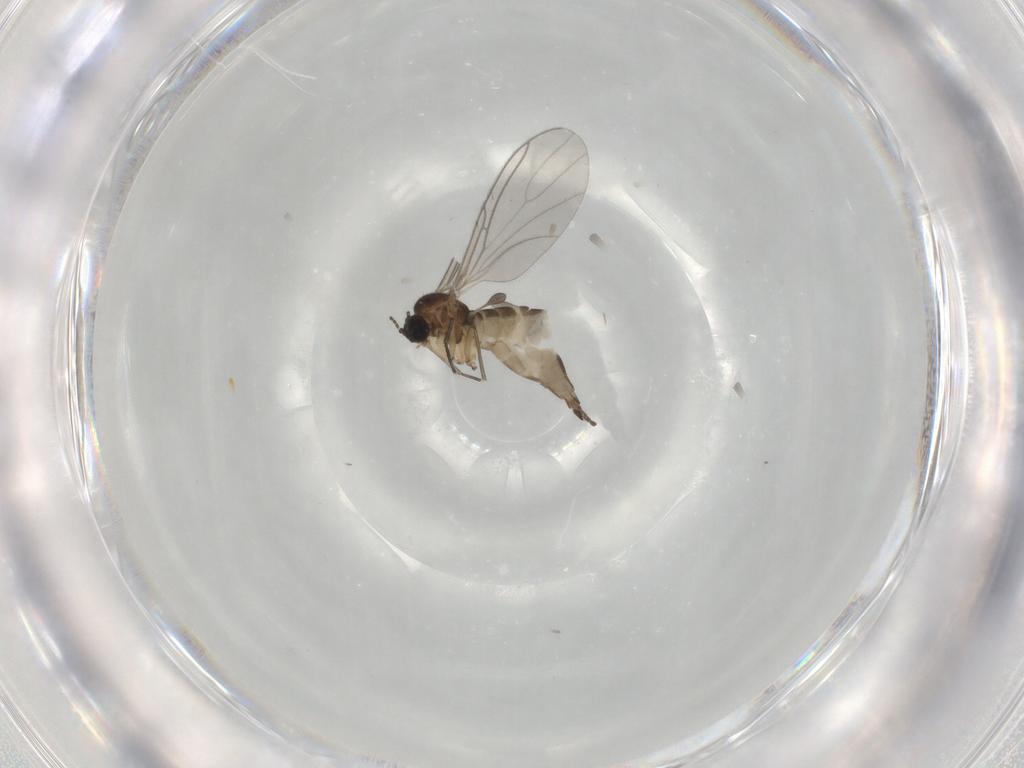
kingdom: Animalia
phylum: Arthropoda
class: Insecta
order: Diptera
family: Sciaridae
